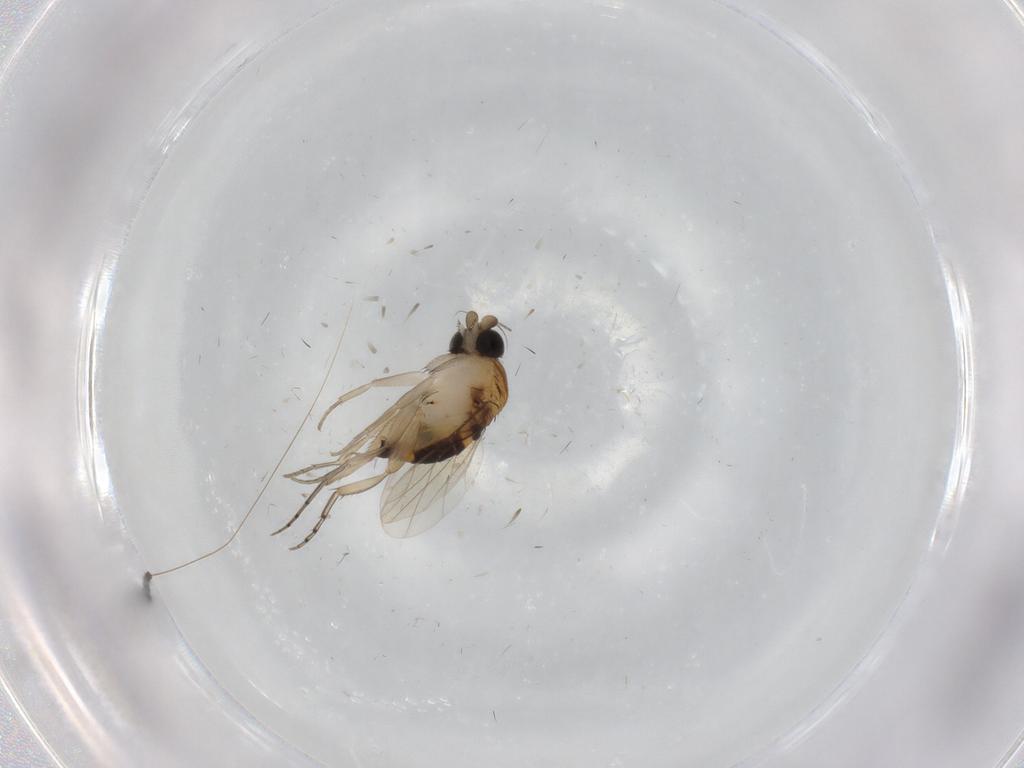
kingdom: Animalia
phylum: Arthropoda
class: Insecta
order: Diptera
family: Phoridae
